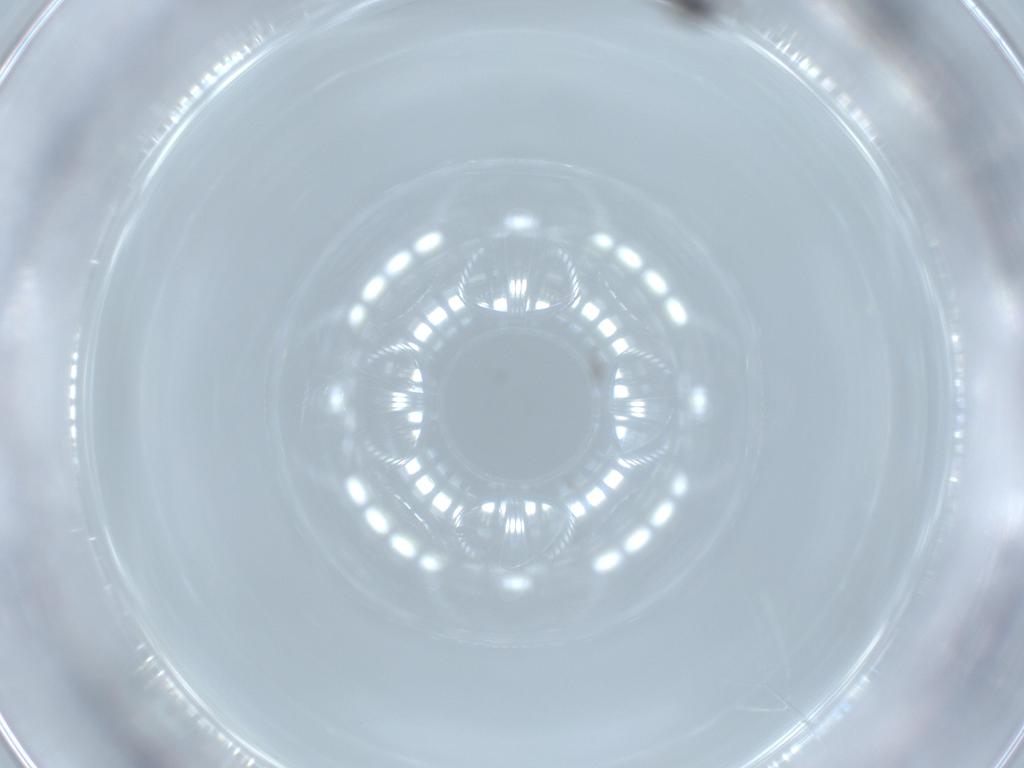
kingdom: Animalia
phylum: Arthropoda
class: Insecta
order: Hymenoptera
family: Ceraphronidae
